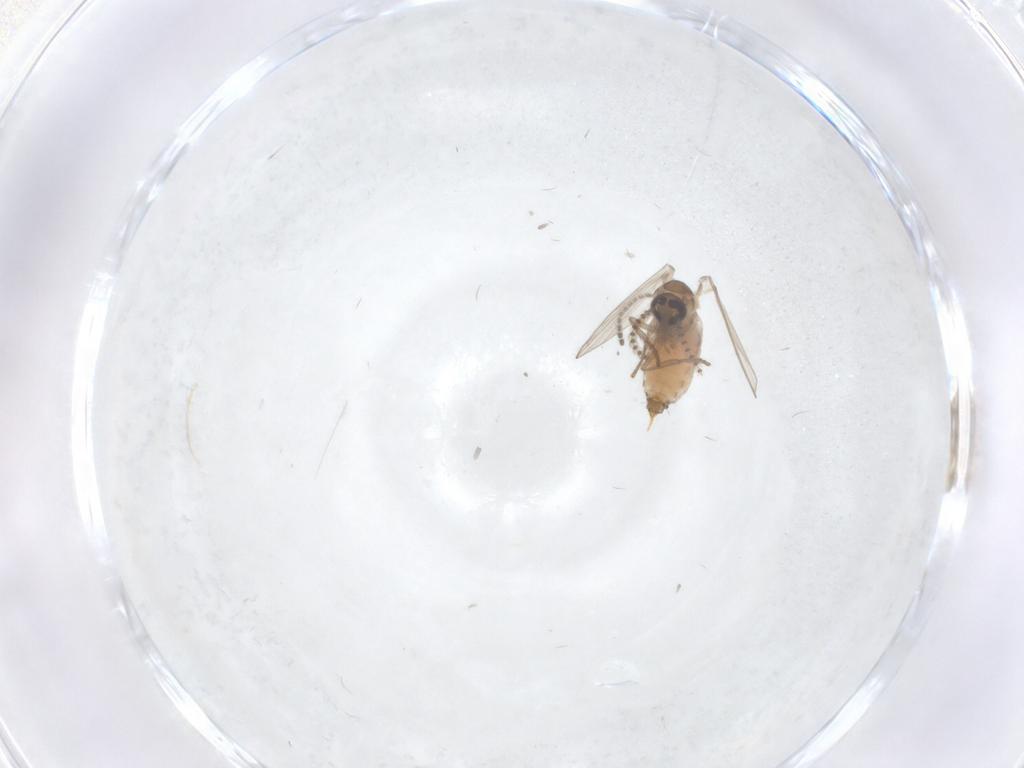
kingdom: Animalia
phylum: Arthropoda
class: Insecta
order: Diptera
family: Psychodidae
